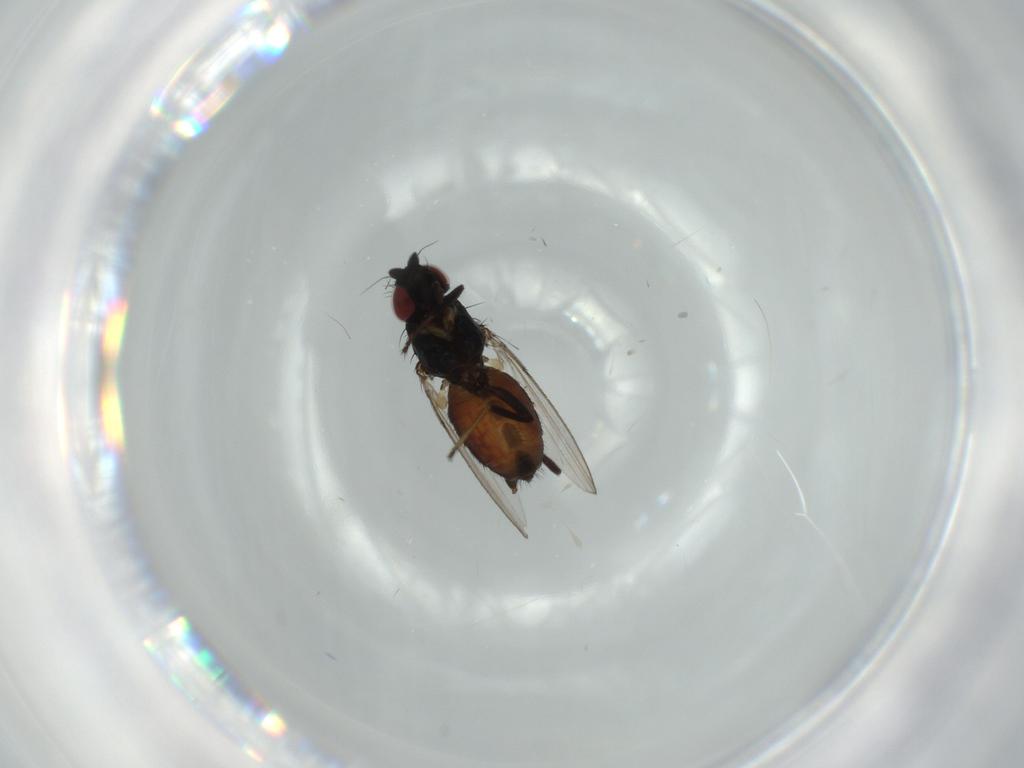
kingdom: Animalia
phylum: Arthropoda
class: Insecta
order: Diptera
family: Milichiidae
